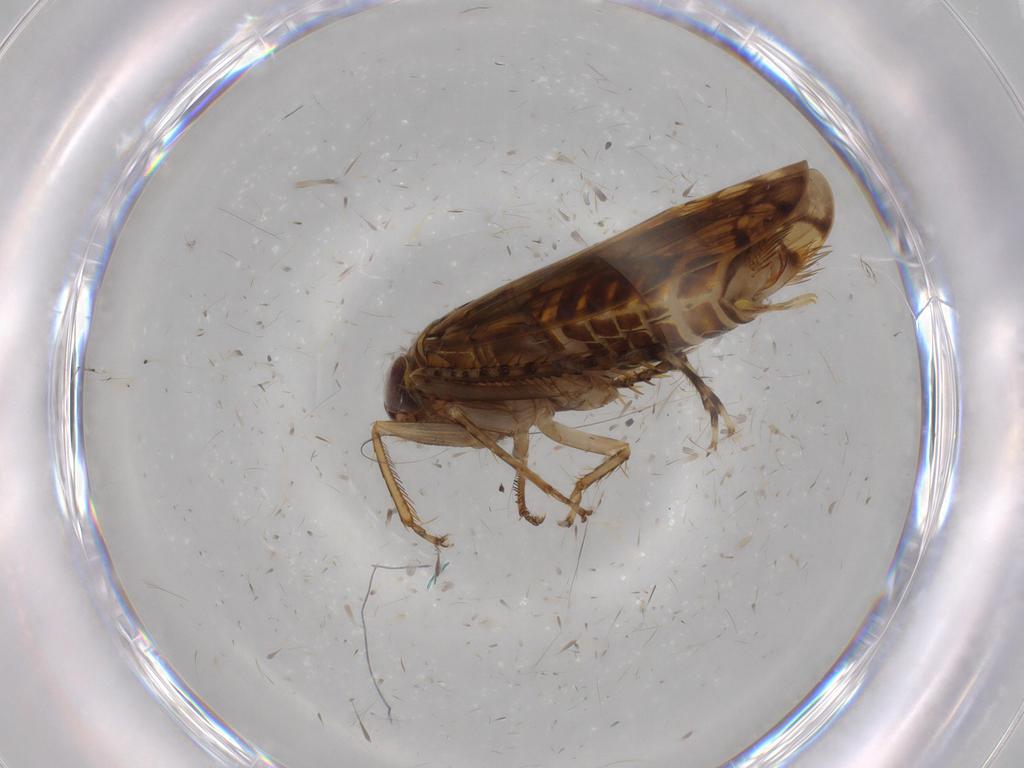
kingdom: Animalia
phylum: Arthropoda
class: Insecta
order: Hemiptera
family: Cicadellidae
